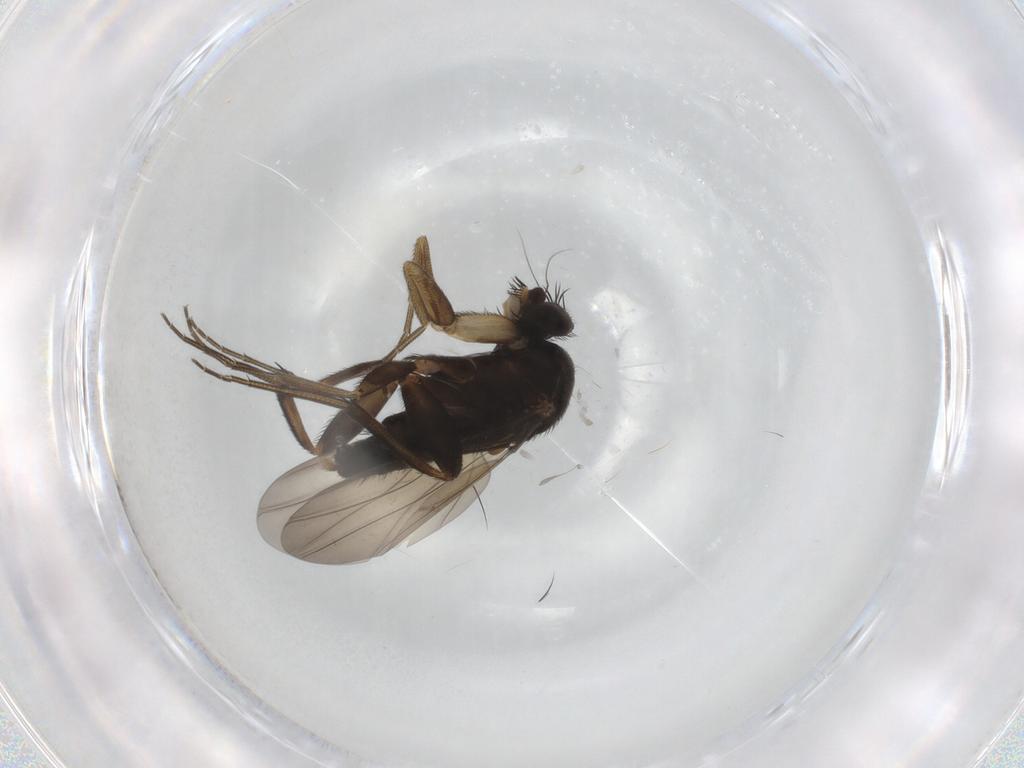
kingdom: Animalia
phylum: Arthropoda
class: Insecta
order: Diptera
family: Phoridae
